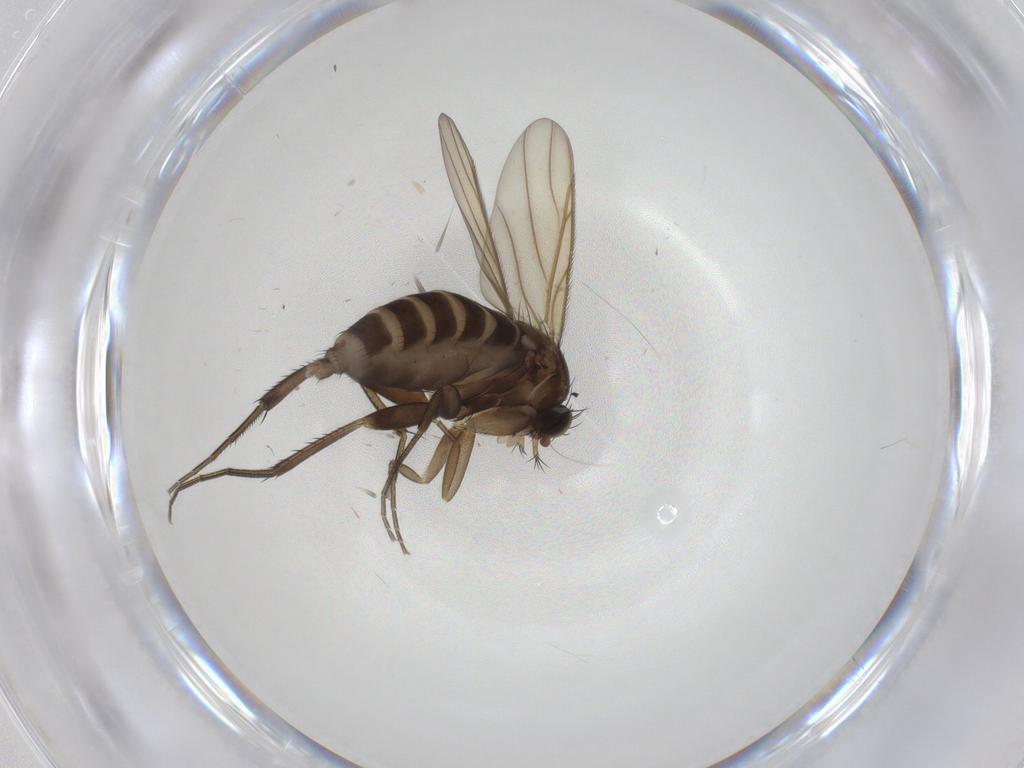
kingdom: Animalia
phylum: Arthropoda
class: Insecta
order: Diptera
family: Phoridae
